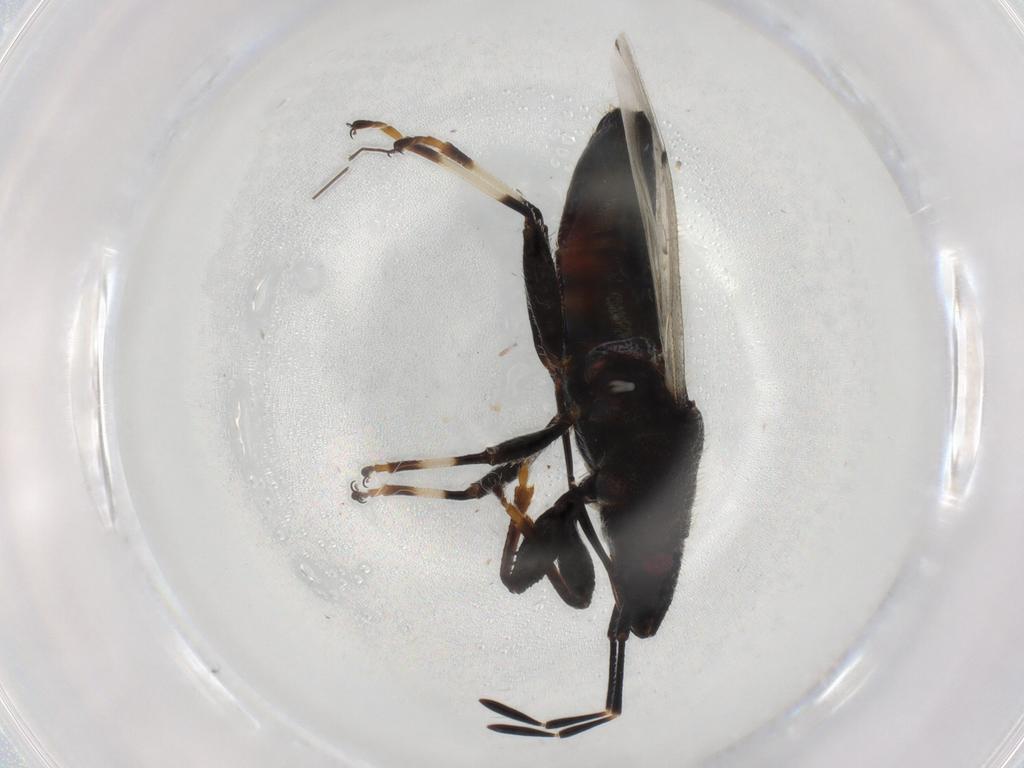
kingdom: Animalia
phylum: Arthropoda
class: Insecta
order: Hemiptera
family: Oxycarenidae
